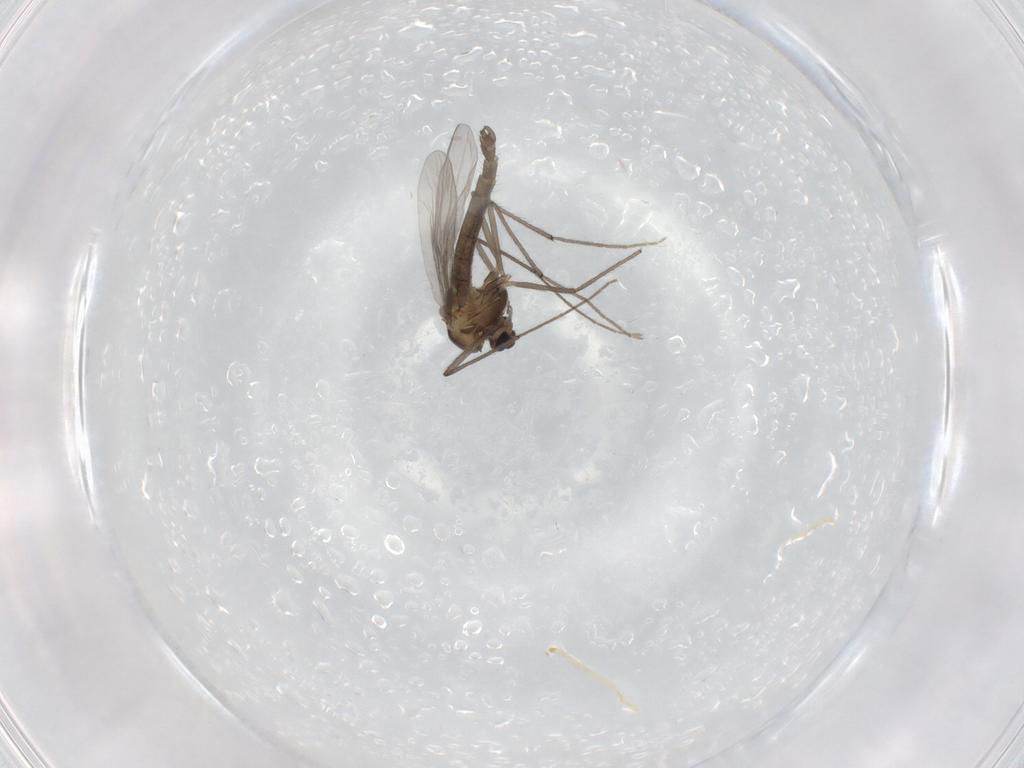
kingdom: Animalia
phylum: Arthropoda
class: Insecta
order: Diptera
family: Chironomidae
